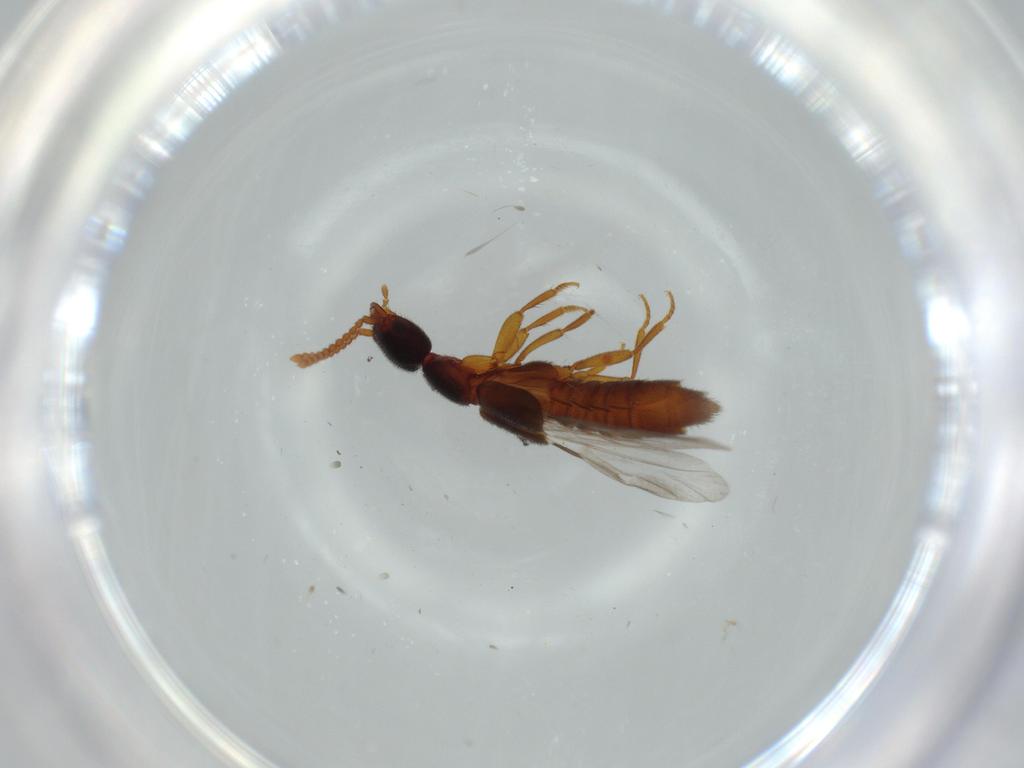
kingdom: Animalia
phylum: Arthropoda
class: Insecta
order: Coleoptera
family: Staphylinidae
